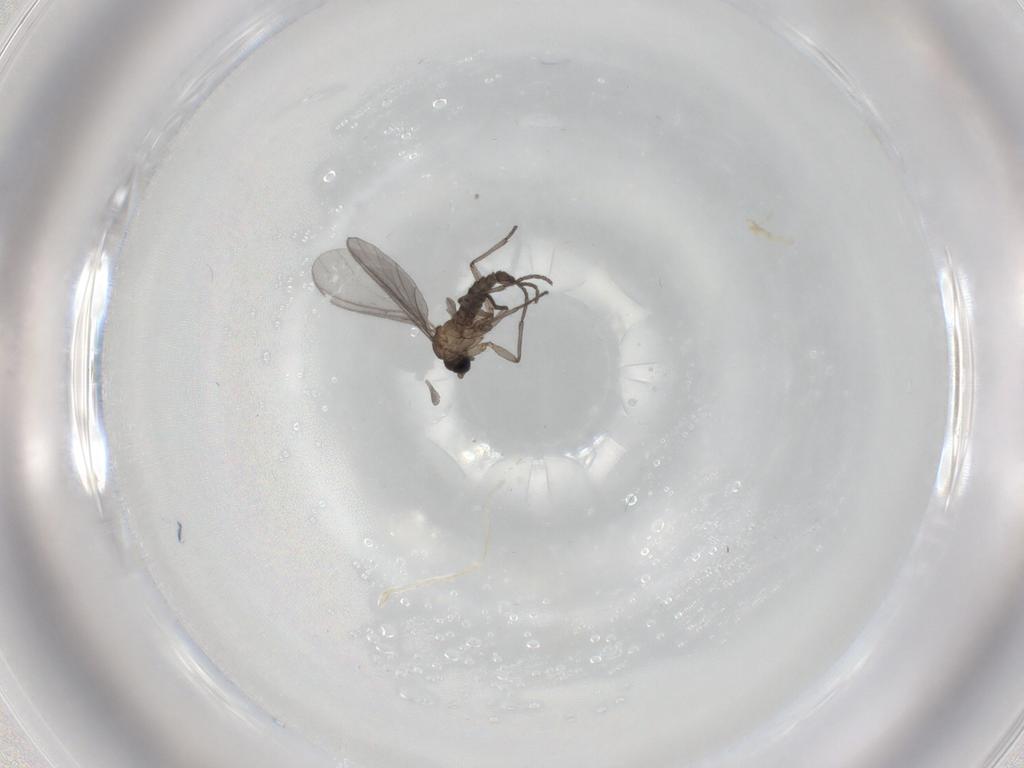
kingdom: Animalia
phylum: Arthropoda
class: Insecta
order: Diptera
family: Sciaridae
